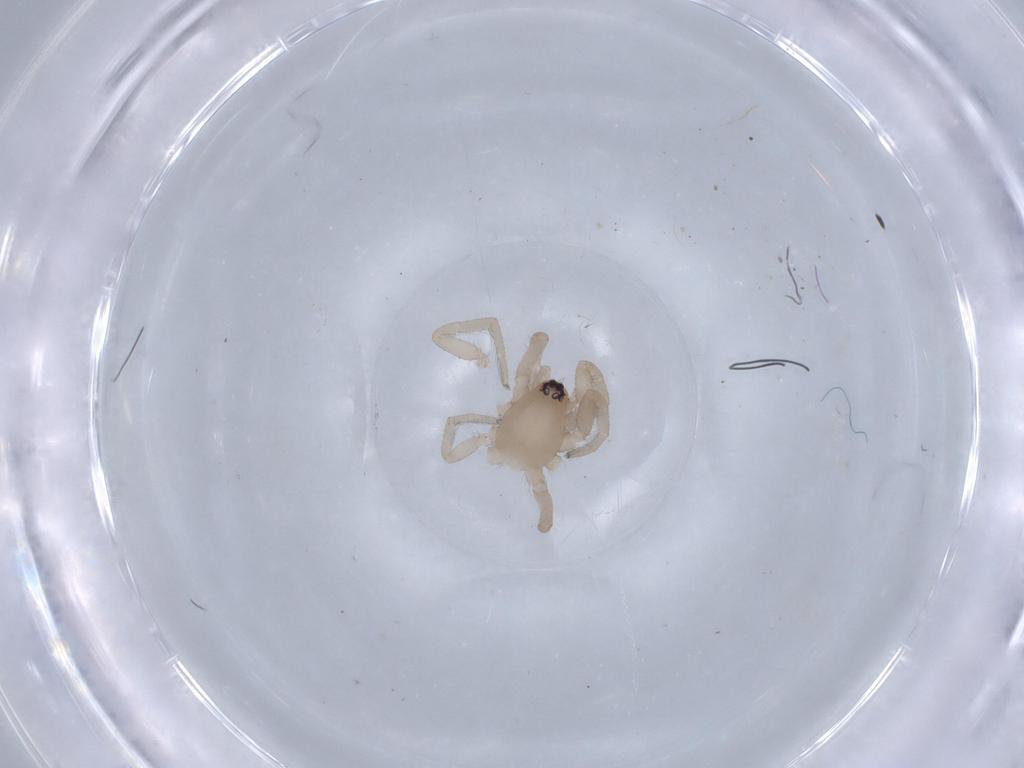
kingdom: Animalia
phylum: Arthropoda
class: Arachnida
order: Araneae
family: Gnaphosidae
